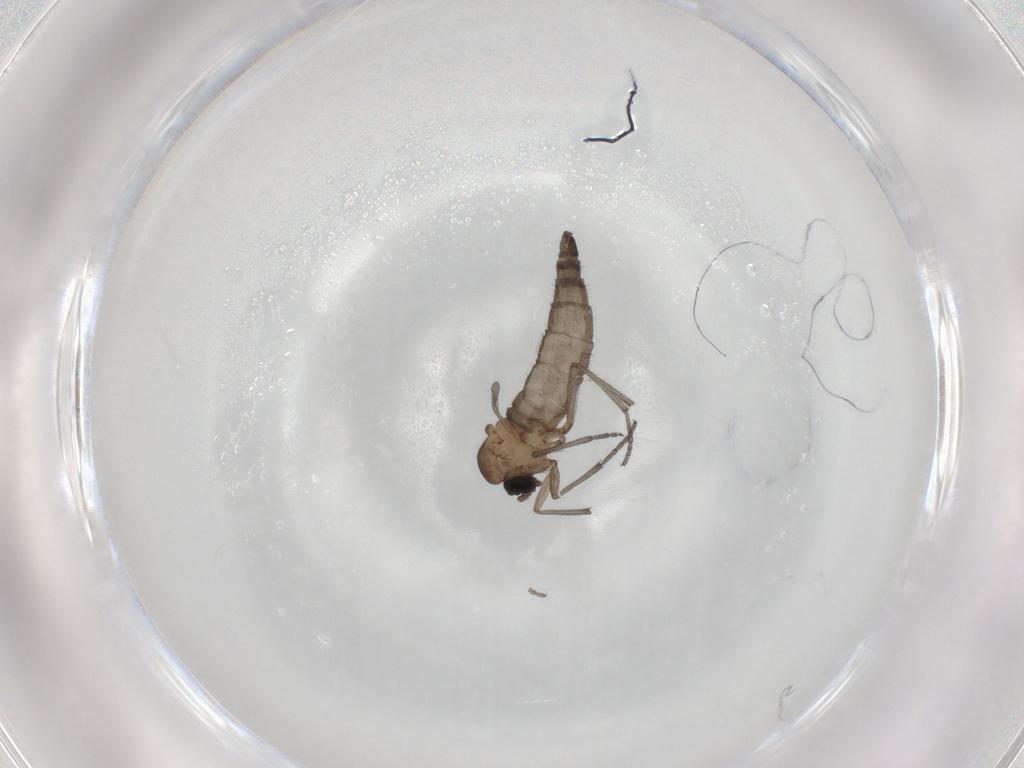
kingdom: Animalia
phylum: Arthropoda
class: Insecta
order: Diptera
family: Sciaridae
